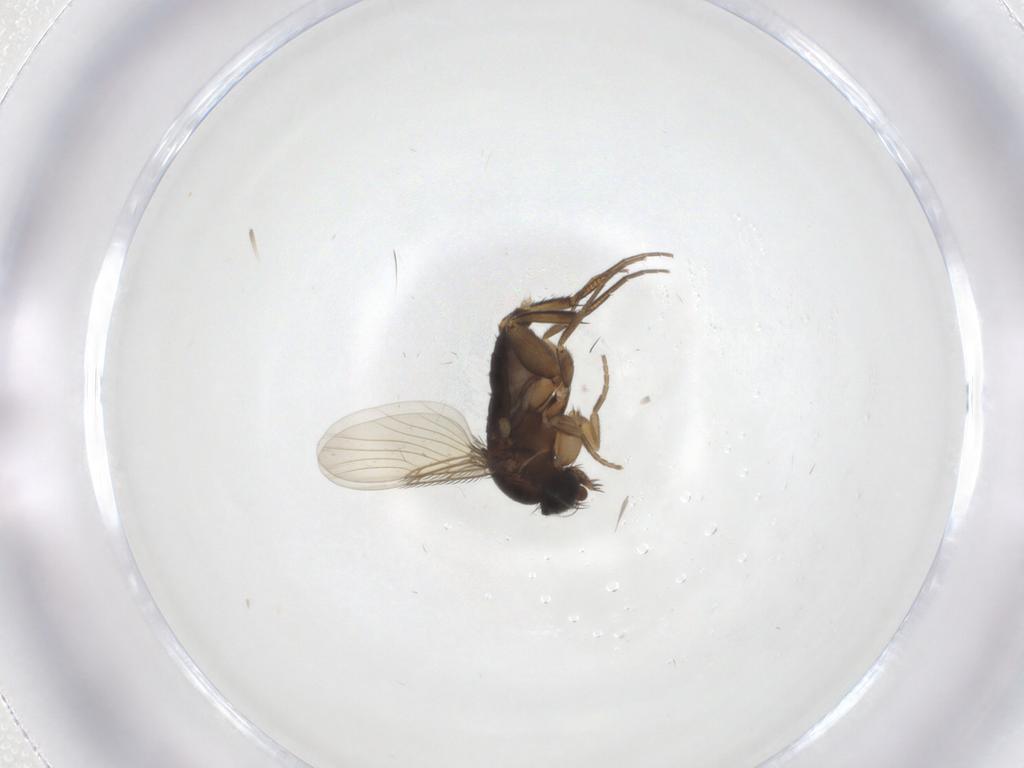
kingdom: Animalia
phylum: Arthropoda
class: Insecta
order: Diptera
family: Phoridae
